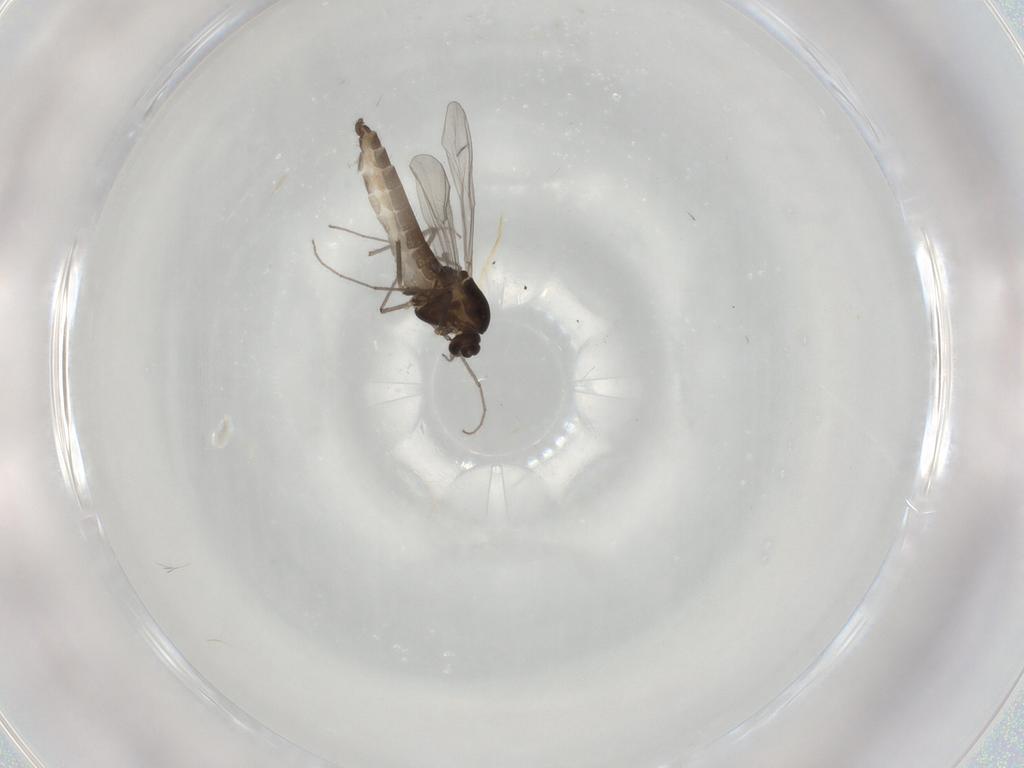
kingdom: Animalia
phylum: Arthropoda
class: Insecta
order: Diptera
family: Chironomidae
